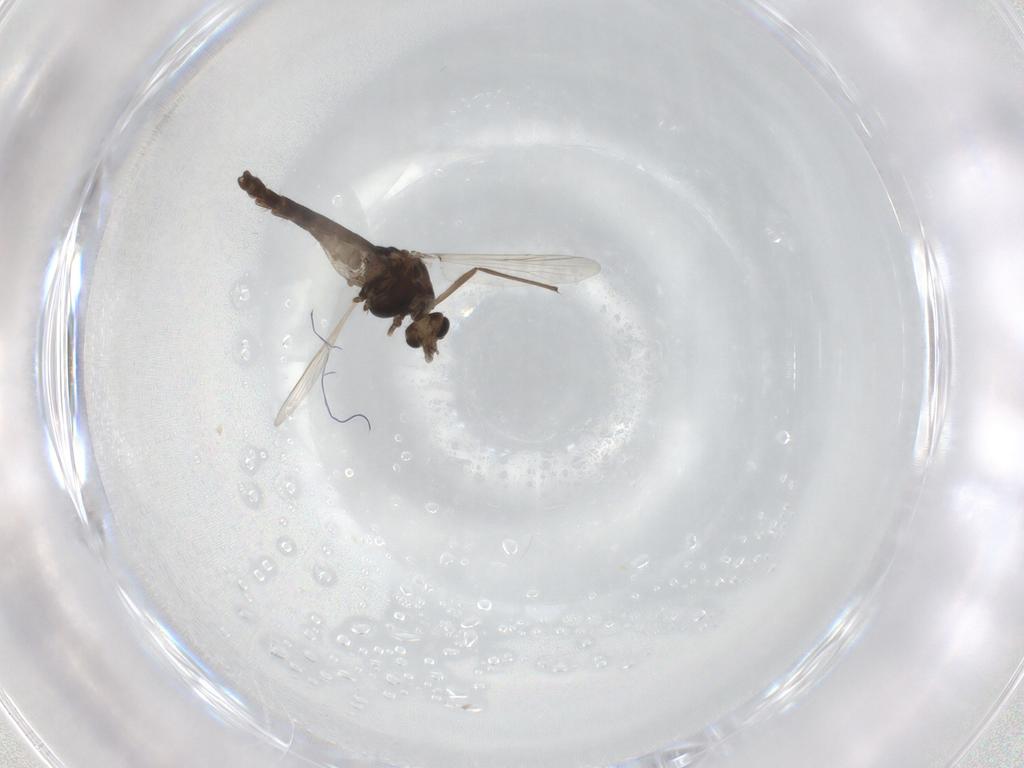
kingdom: Animalia
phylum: Arthropoda
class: Insecta
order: Diptera
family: Chironomidae
